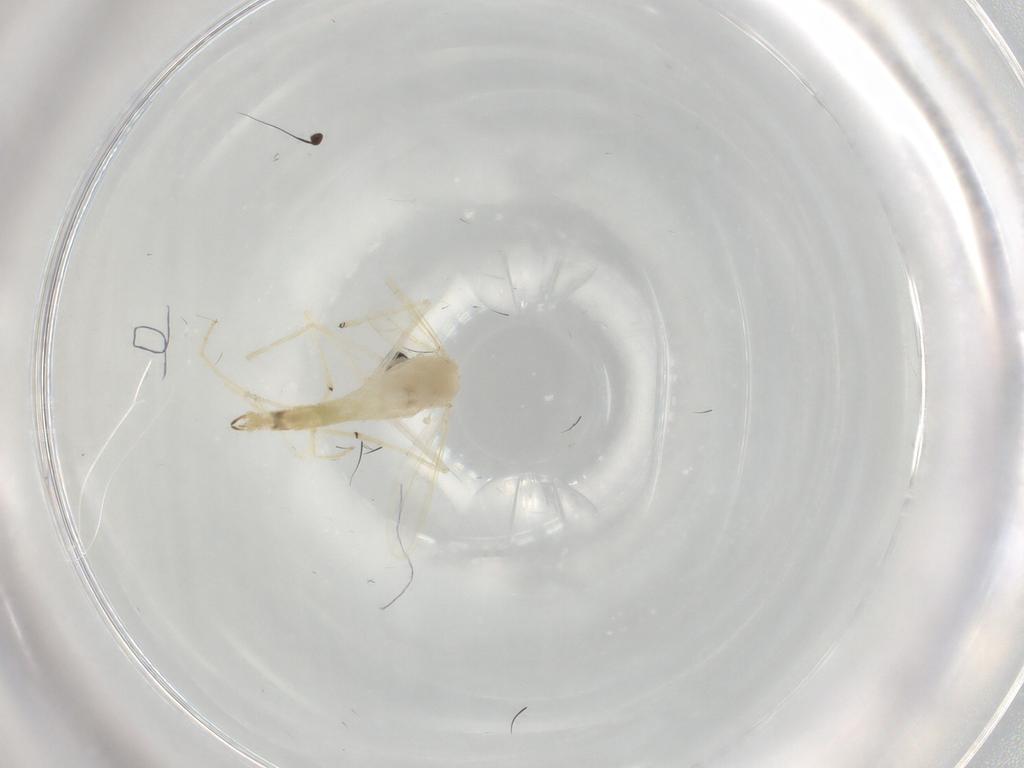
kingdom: Animalia
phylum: Arthropoda
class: Insecta
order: Diptera
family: Chironomidae
